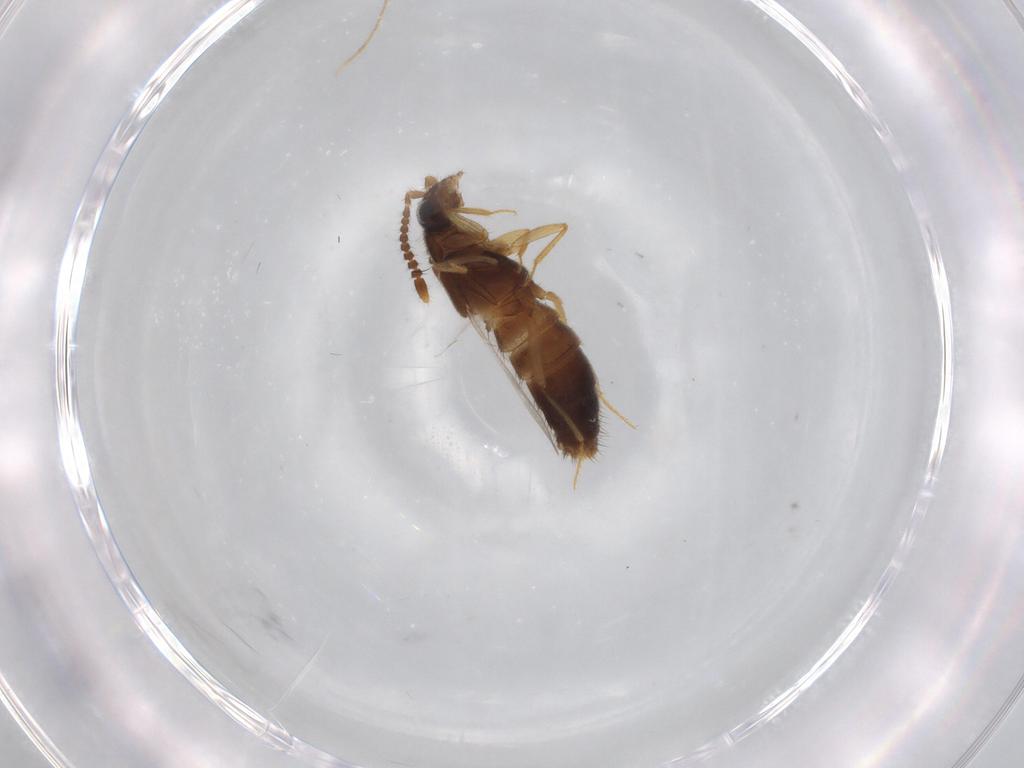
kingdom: Animalia
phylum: Arthropoda
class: Insecta
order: Coleoptera
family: Staphylinidae
